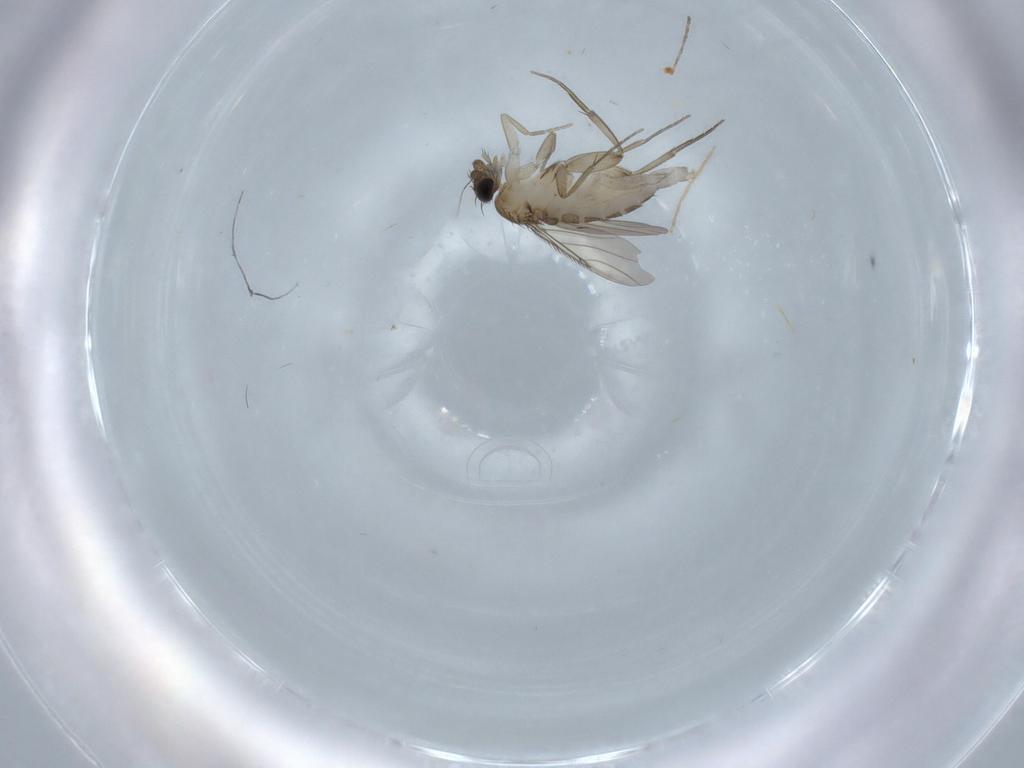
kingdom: Animalia
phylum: Arthropoda
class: Insecta
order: Diptera
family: Phoridae
